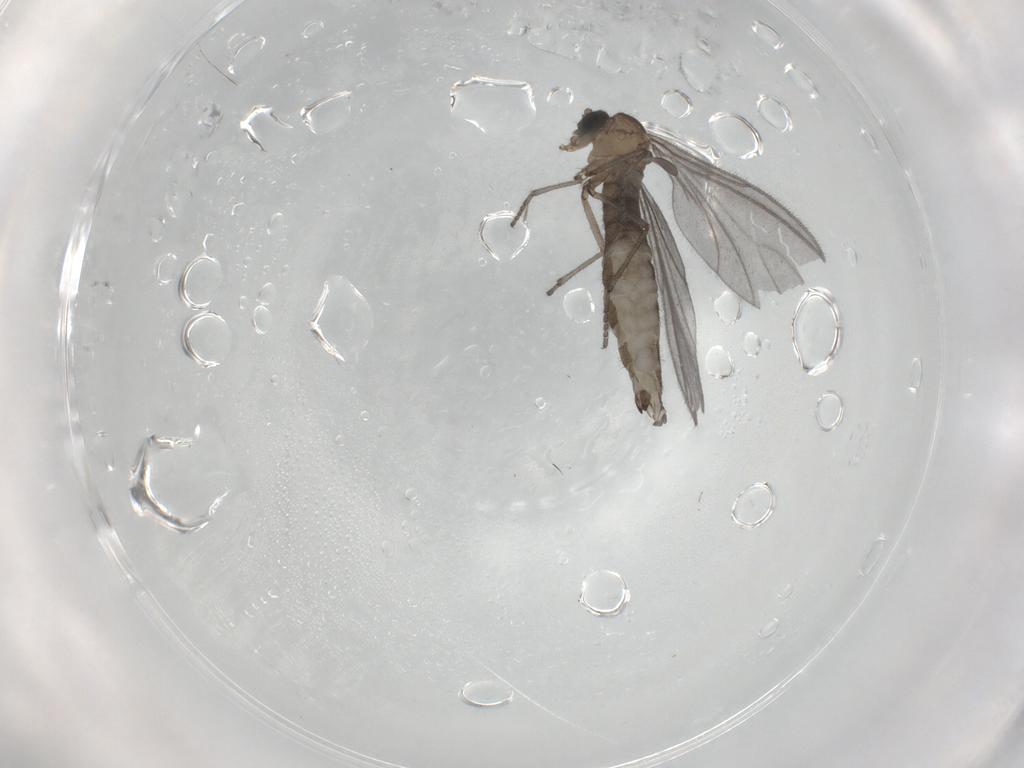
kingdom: Animalia
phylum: Arthropoda
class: Insecta
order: Diptera
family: Sciaridae
